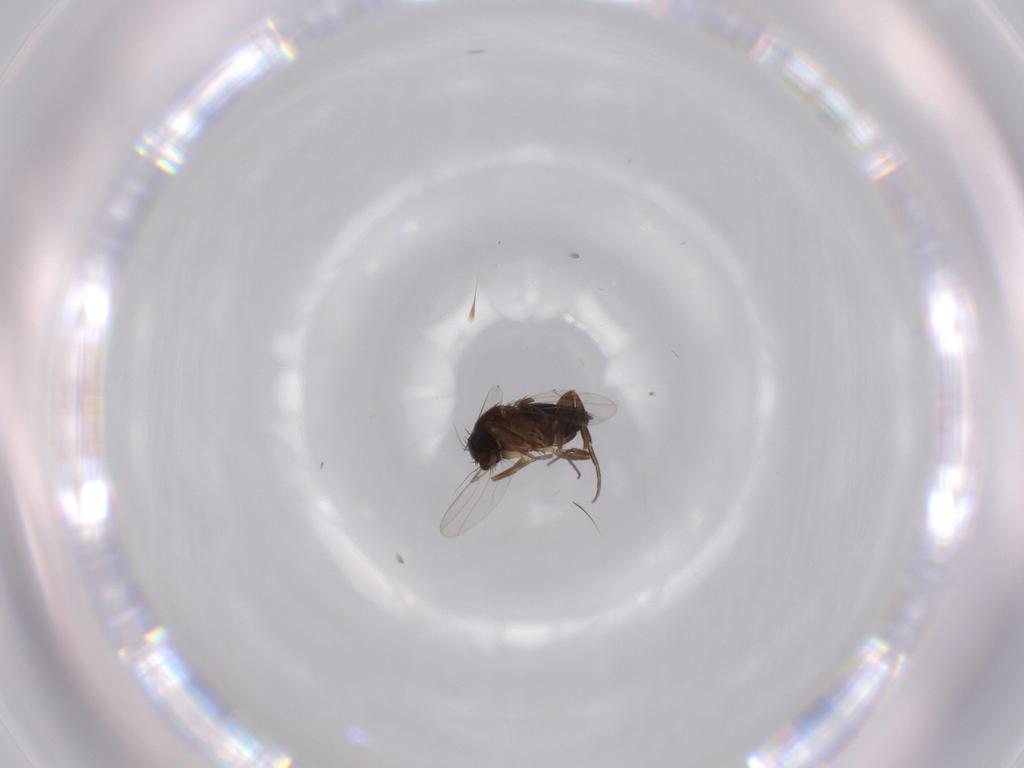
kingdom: Animalia
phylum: Arthropoda
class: Insecta
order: Diptera
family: Phoridae
